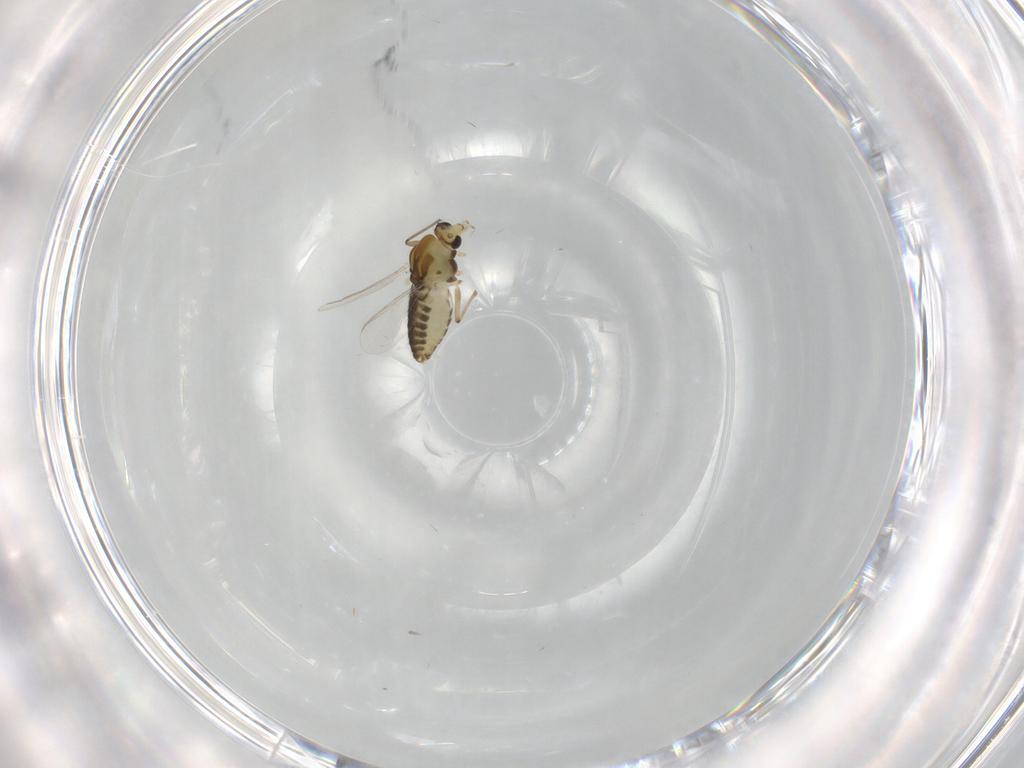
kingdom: Animalia
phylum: Arthropoda
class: Insecta
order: Diptera
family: Chironomidae
